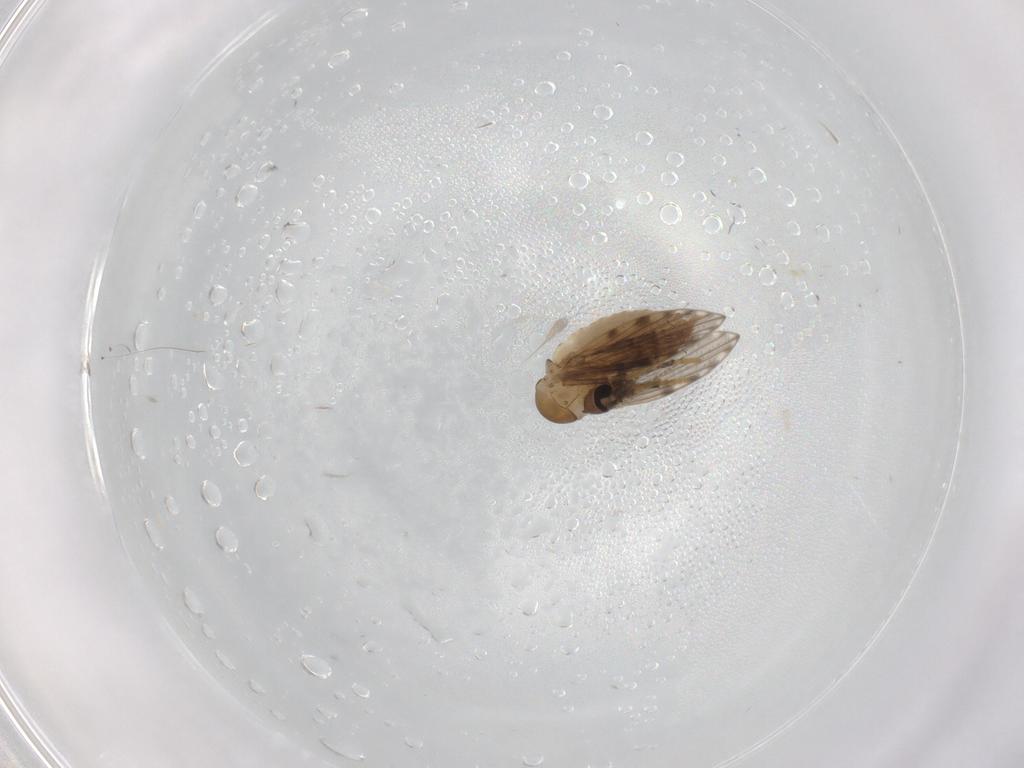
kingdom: Animalia
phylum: Arthropoda
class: Insecta
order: Diptera
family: Psychodidae
